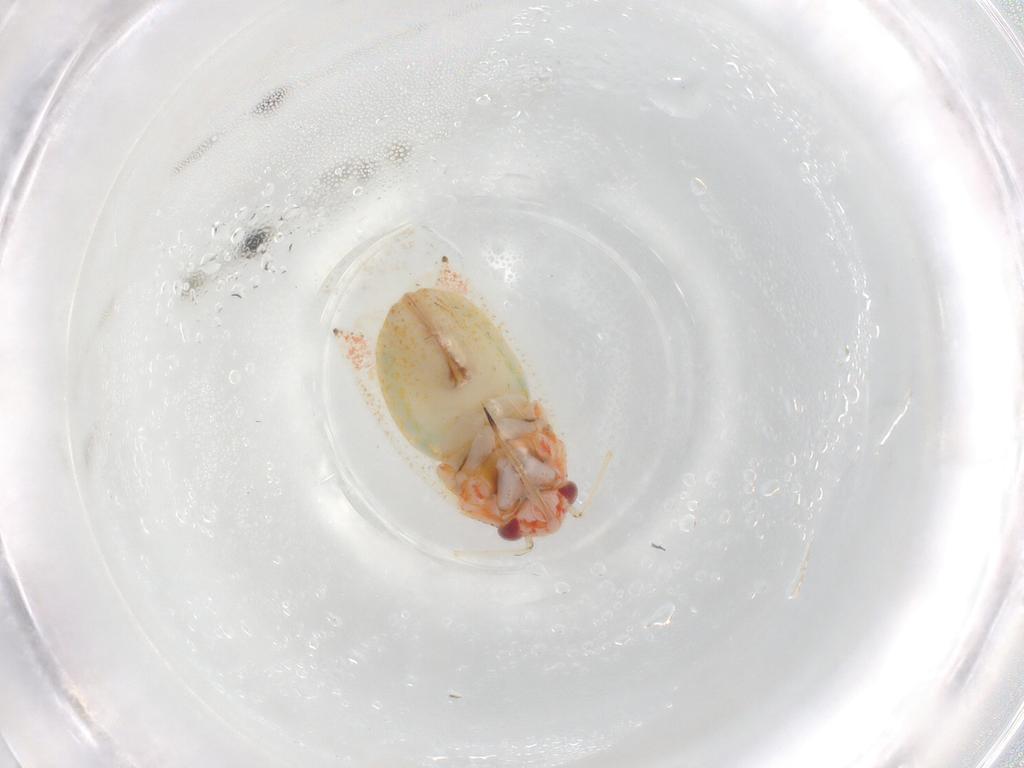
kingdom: Animalia
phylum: Arthropoda
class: Insecta
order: Hemiptera
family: Miridae
